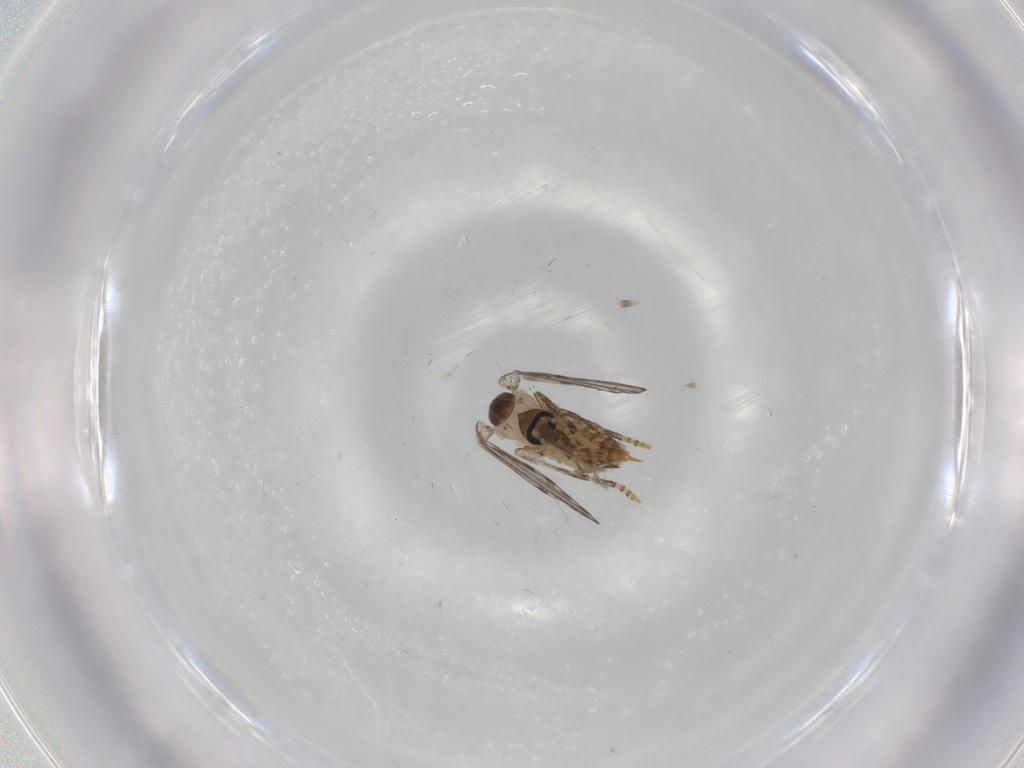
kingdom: Animalia
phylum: Arthropoda
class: Insecta
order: Diptera
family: Psychodidae
